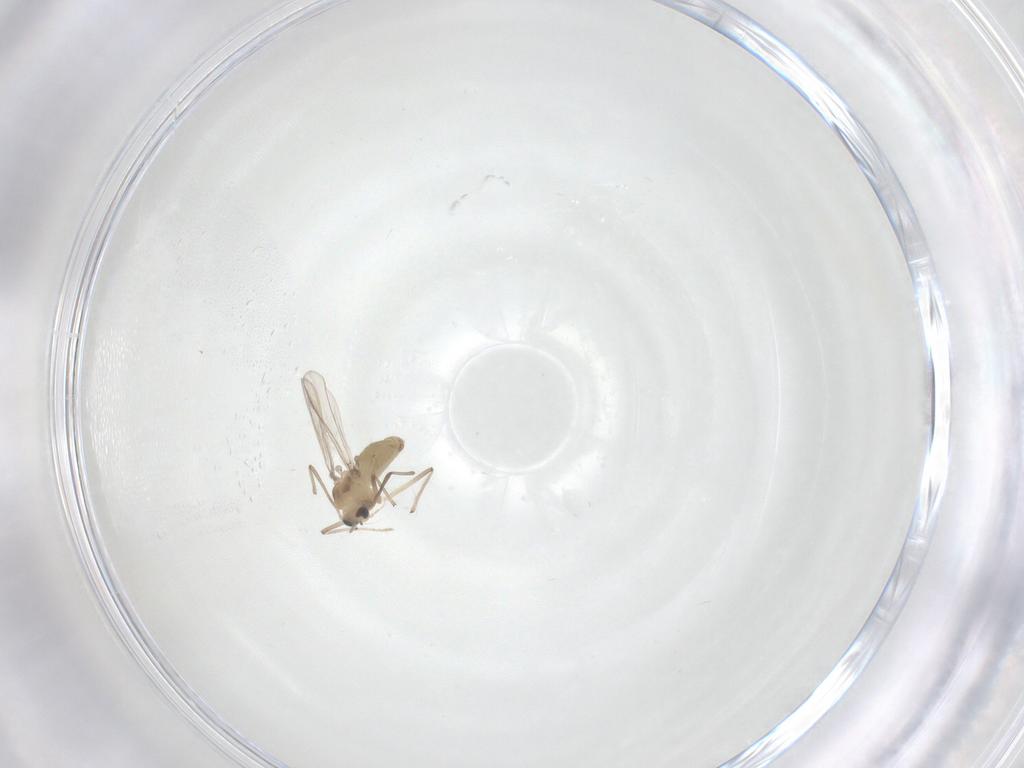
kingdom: Animalia
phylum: Arthropoda
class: Insecta
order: Diptera
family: Chironomidae
